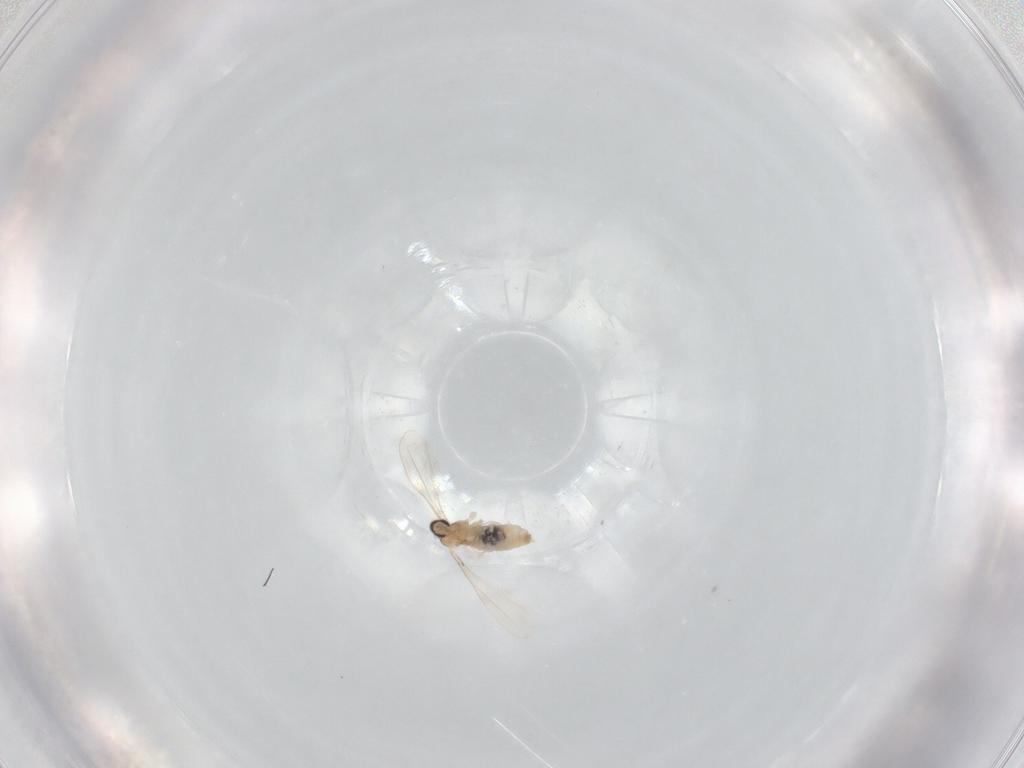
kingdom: Animalia
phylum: Arthropoda
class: Insecta
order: Diptera
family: Cecidomyiidae
